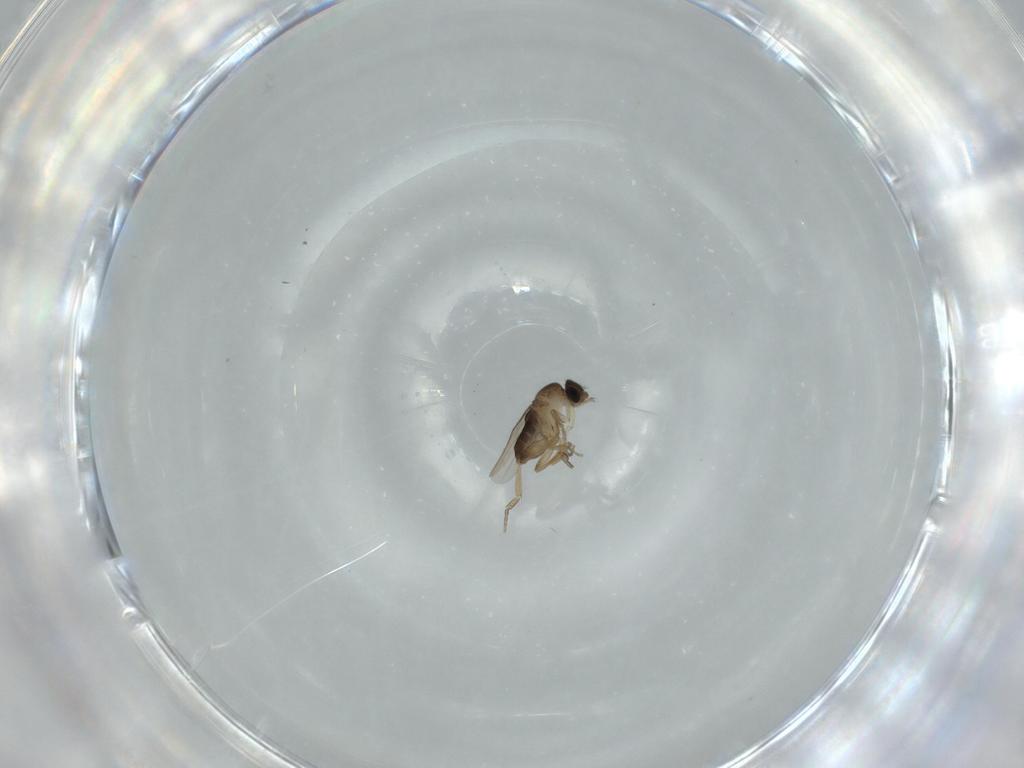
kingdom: Animalia
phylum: Arthropoda
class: Insecta
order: Diptera
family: Phoridae
